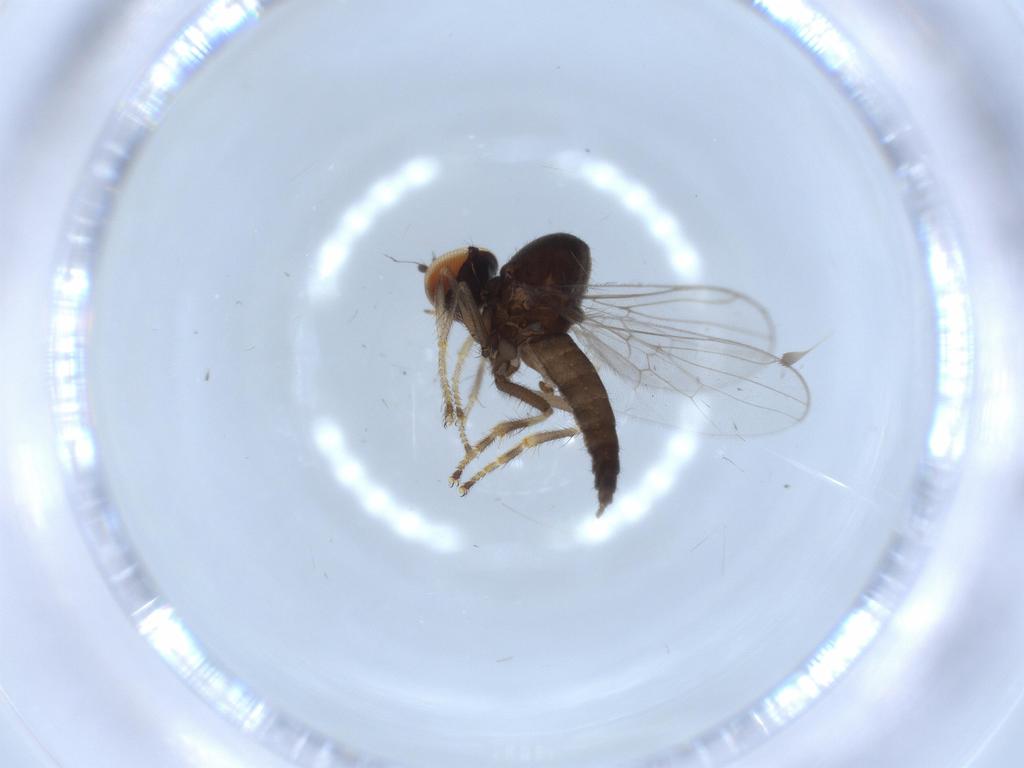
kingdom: Animalia
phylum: Arthropoda
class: Insecta
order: Diptera
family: Hybotidae
